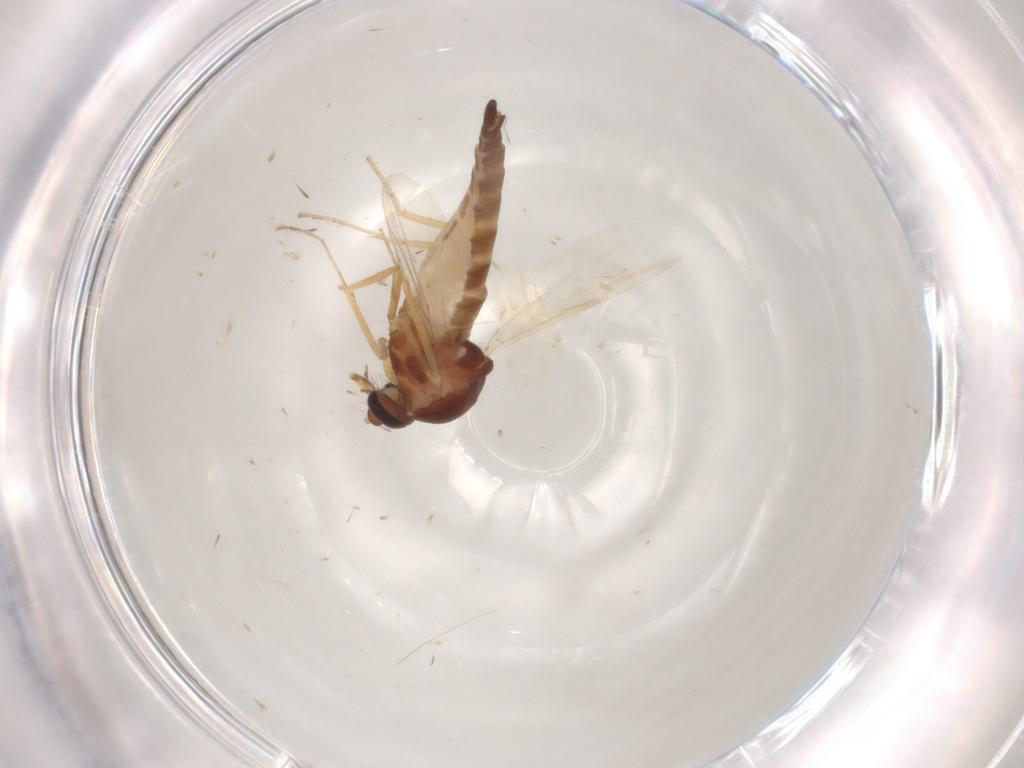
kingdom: Animalia
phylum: Arthropoda
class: Insecta
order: Diptera
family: Ceratopogonidae
